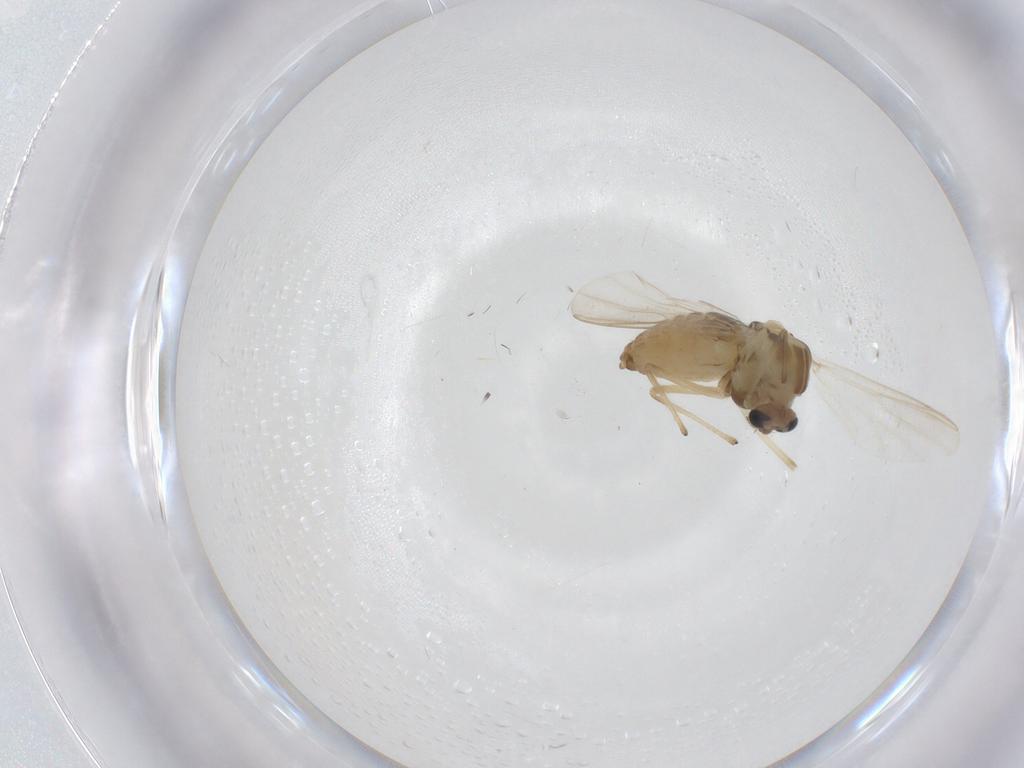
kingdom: Animalia
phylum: Arthropoda
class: Insecta
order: Diptera
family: Chironomidae
